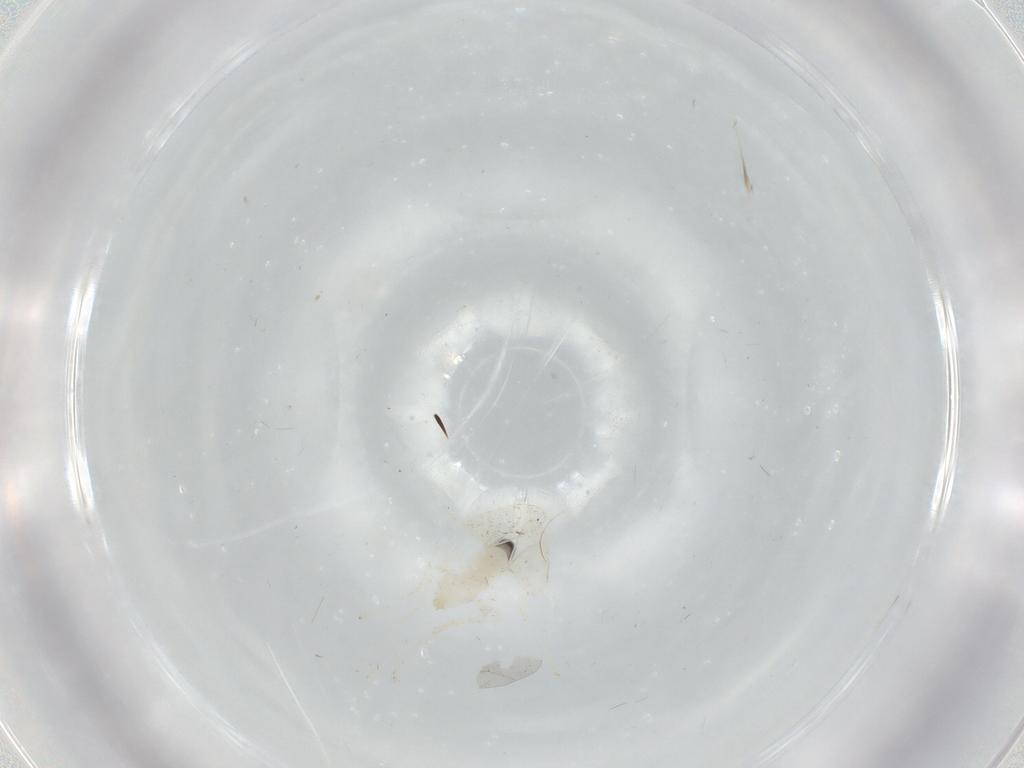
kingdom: Animalia
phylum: Arthropoda
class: Insecta
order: Diptera
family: Cecidomyiidae
